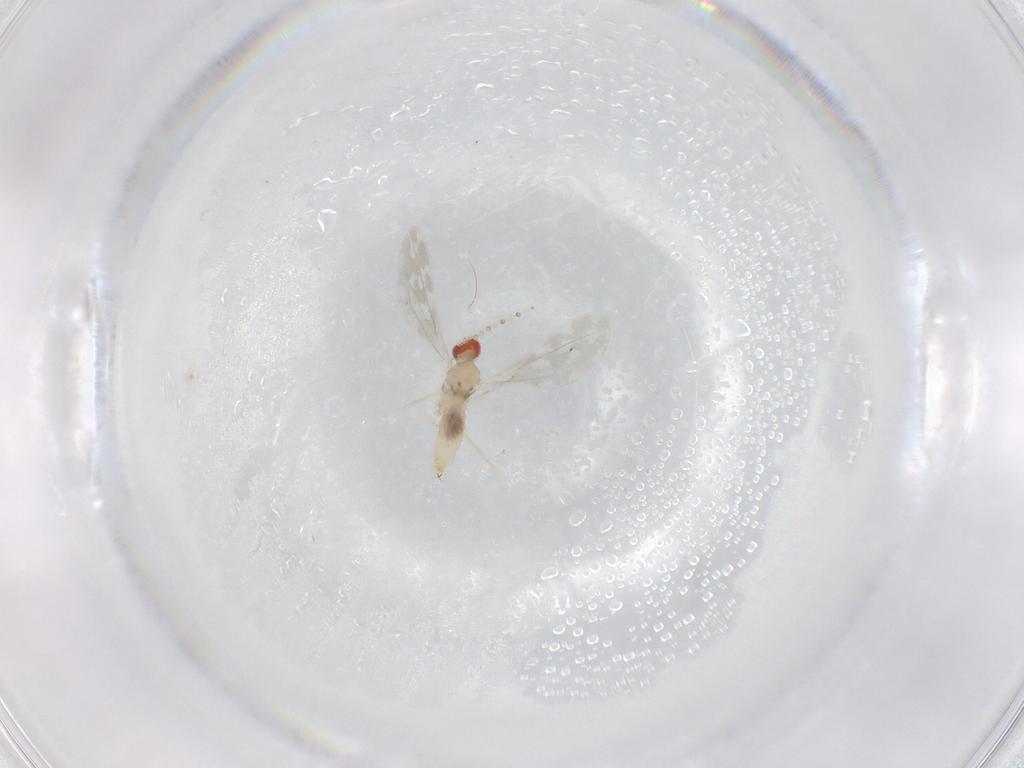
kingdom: Animalia
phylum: Arthropoda
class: Insecta
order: Diptera
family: Cecidomyiidae
